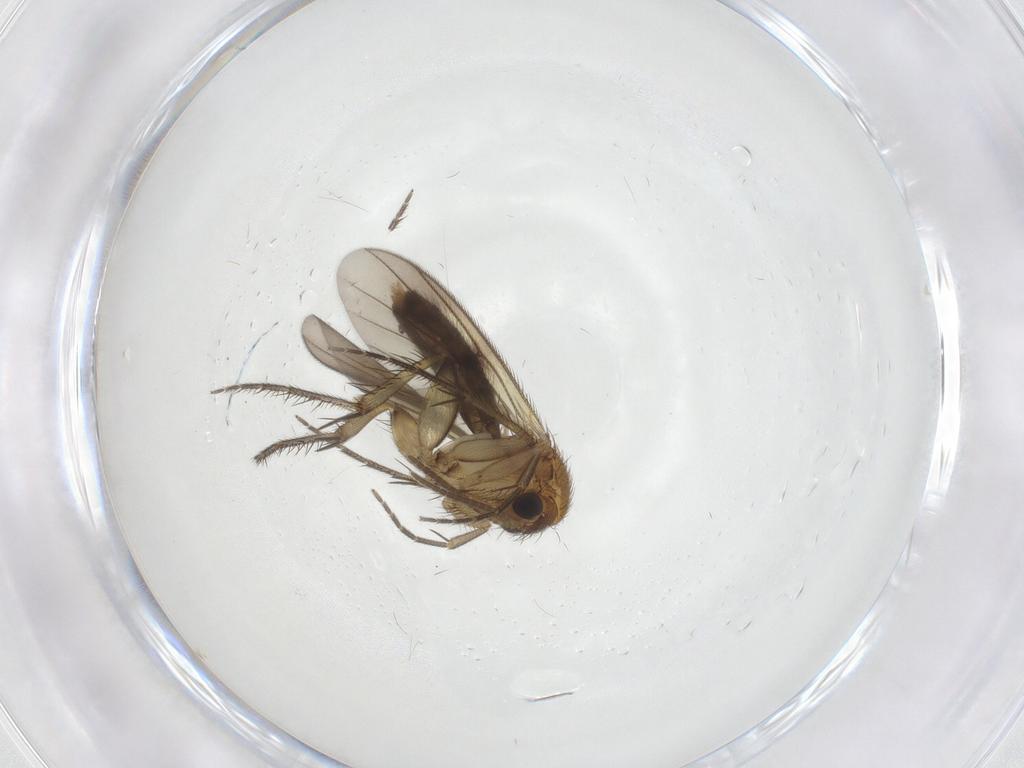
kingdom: Animalia
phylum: Arthropoda
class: Insecta
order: Diptera
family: Mycetophilidae
